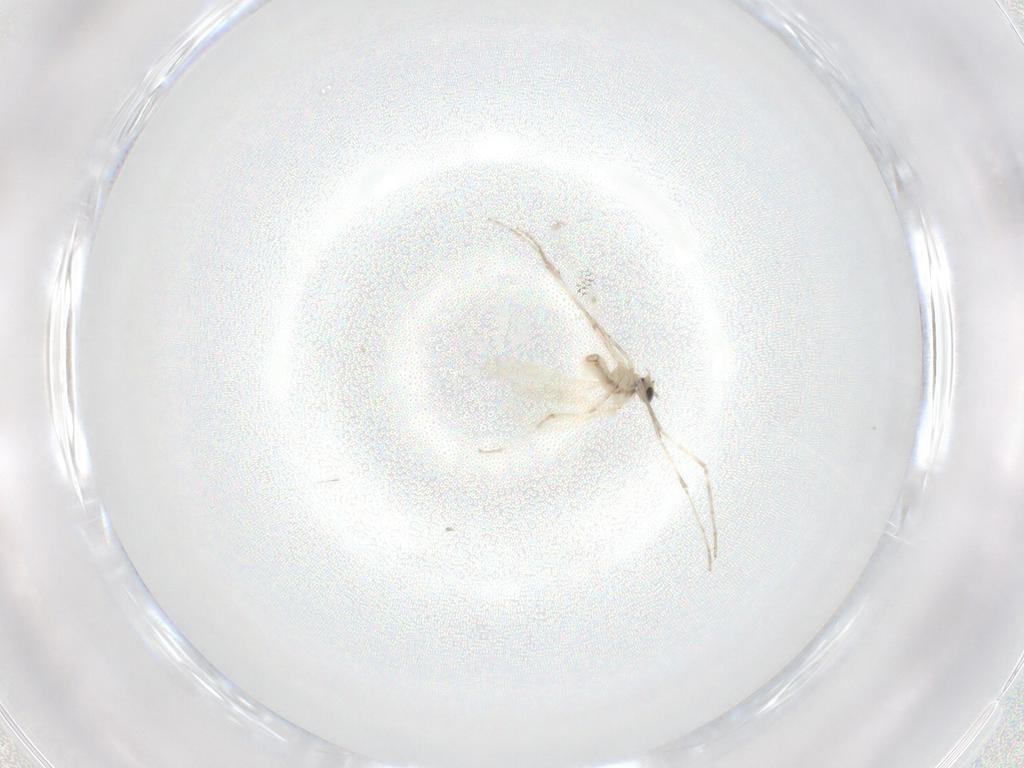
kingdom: Animalia
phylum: Arthropoda
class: Insecta
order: Diptera
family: Cecidomyiidae
